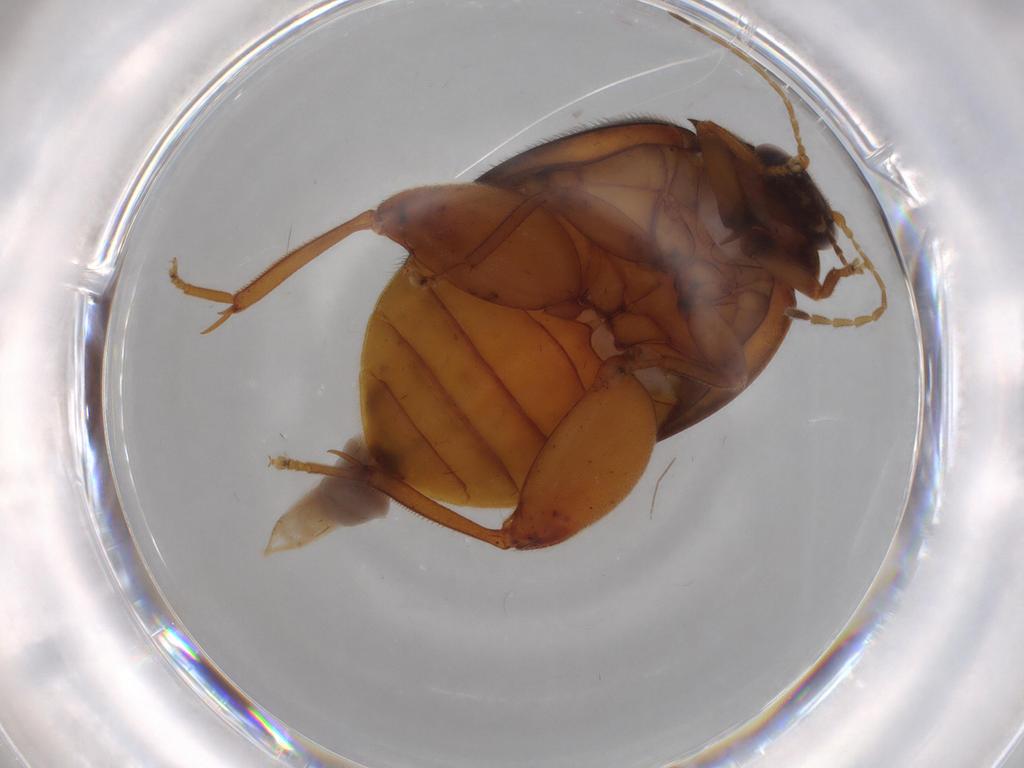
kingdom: Animalia
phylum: Arthropoda
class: Insecta
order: Coleoptera
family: Scirtidae
